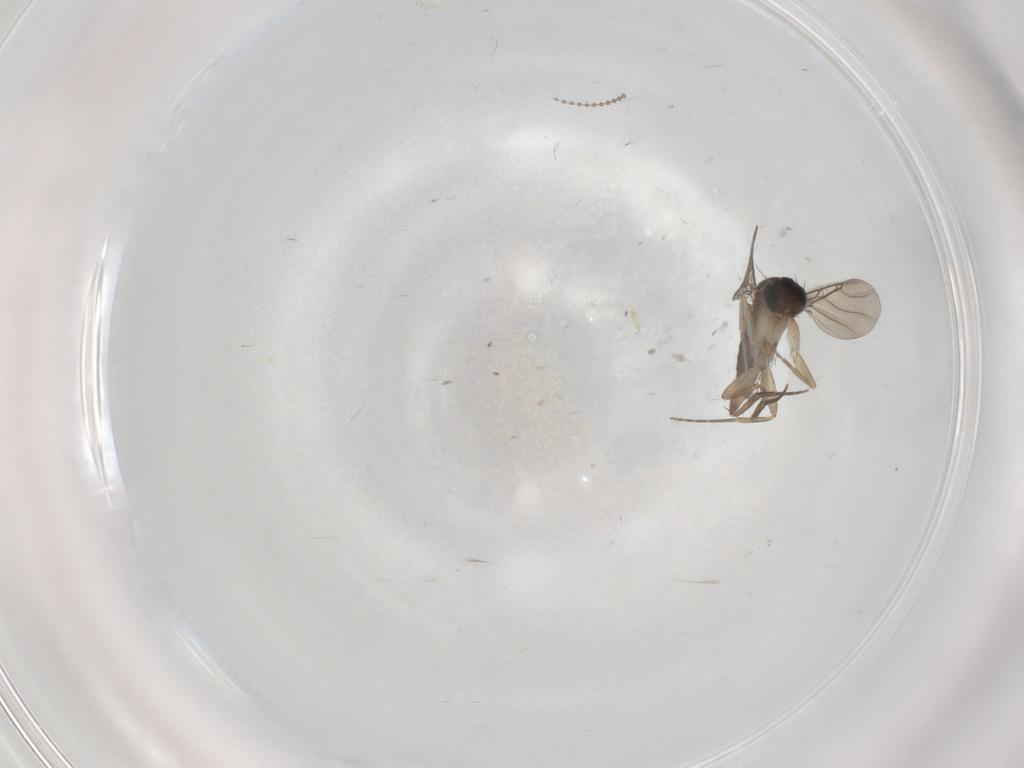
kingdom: Animalia
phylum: Arthropoda
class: Insecta
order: Diptera
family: Phoridae
